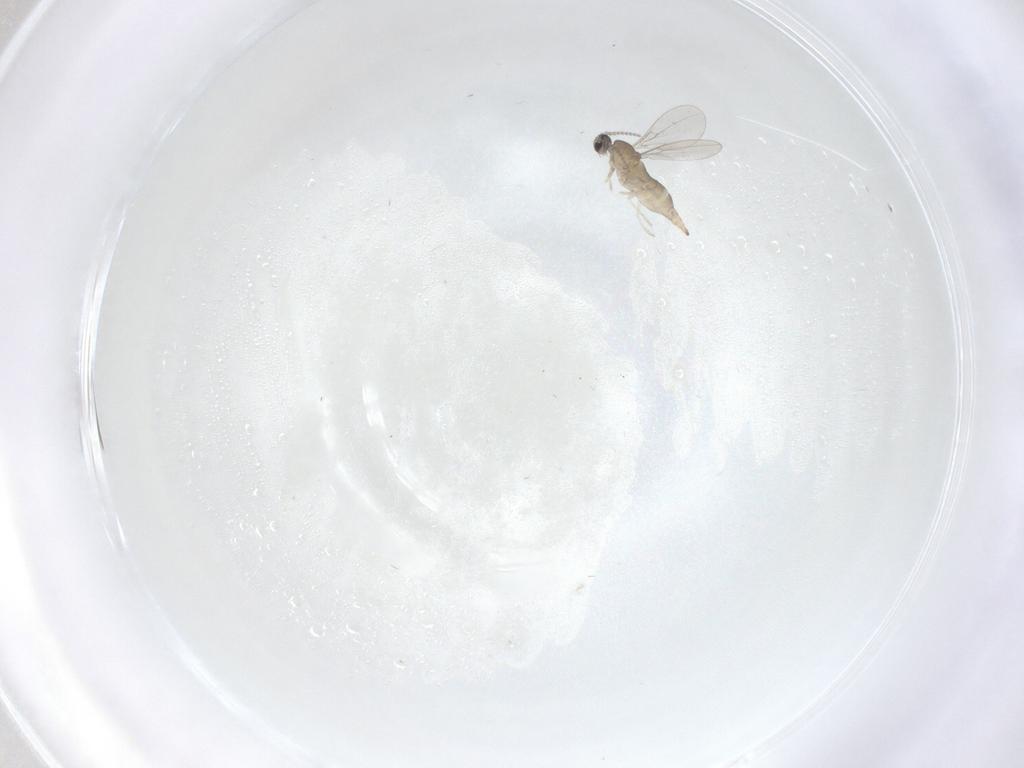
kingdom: Animalia
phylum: Arthropoda
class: Insecta
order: Diptera
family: Cecidomyiidae
